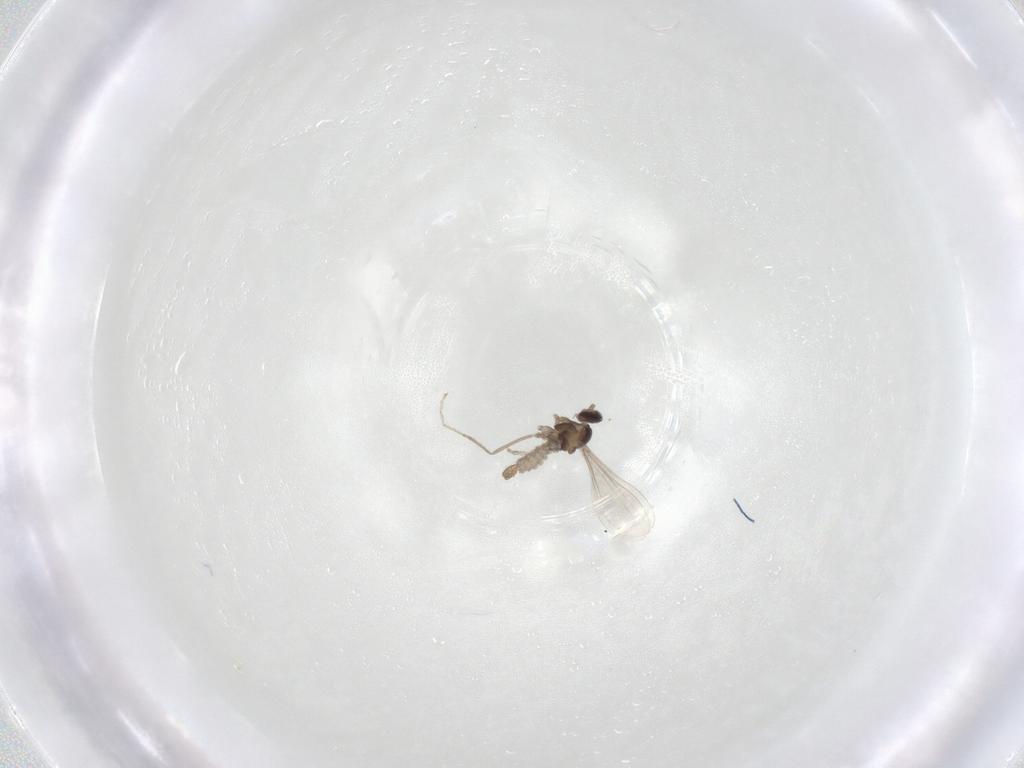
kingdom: Animalia
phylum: Arthropoda
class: Insecta
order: Diptera
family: Cecidomyiidae
